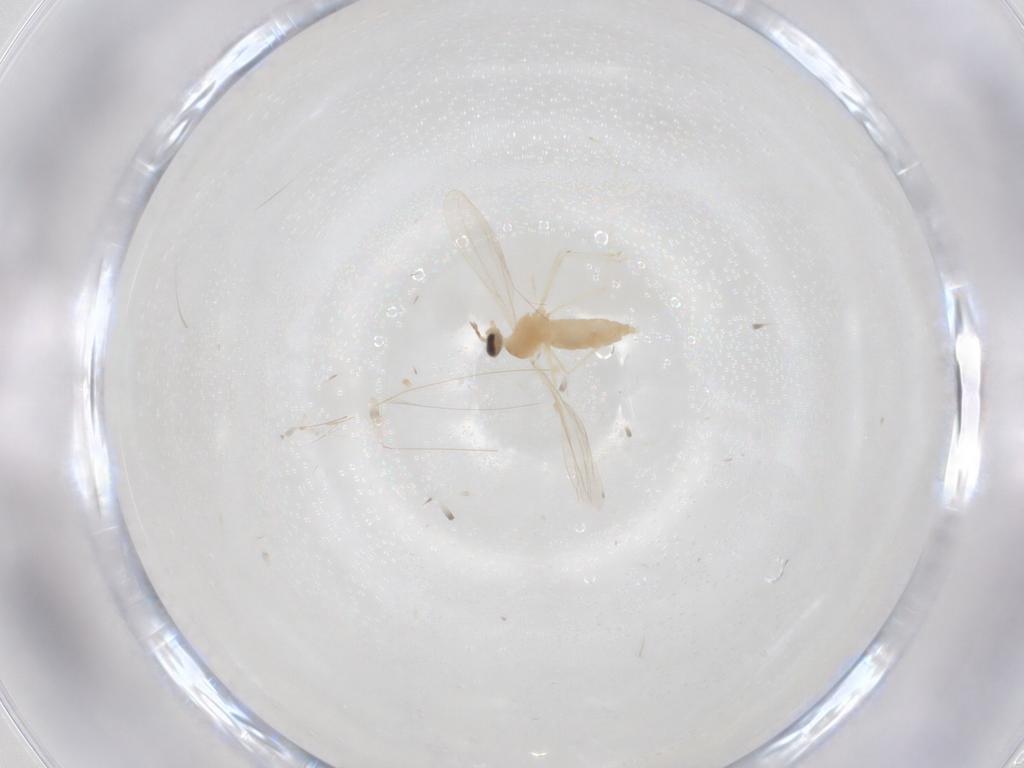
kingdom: Animalia
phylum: Arthropoda
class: Insecta
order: Diptera
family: Cecidomyiidae
